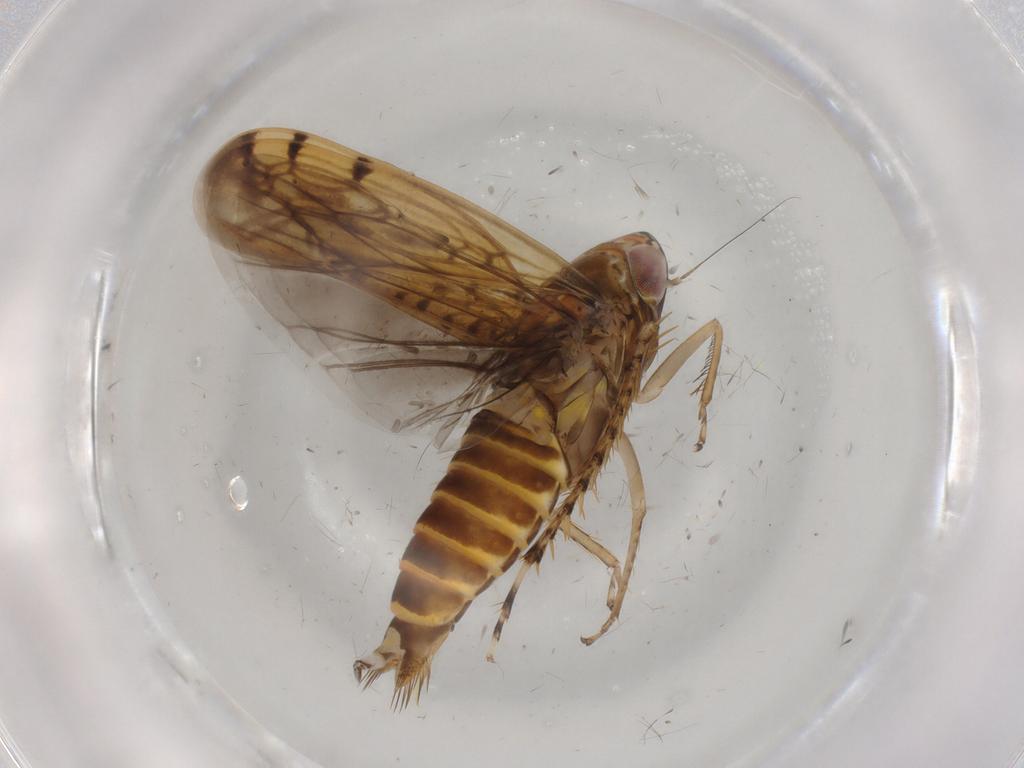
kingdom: Animalia
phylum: Arthropoda
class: Insecta
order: Hemiptera
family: Cicadellidae
